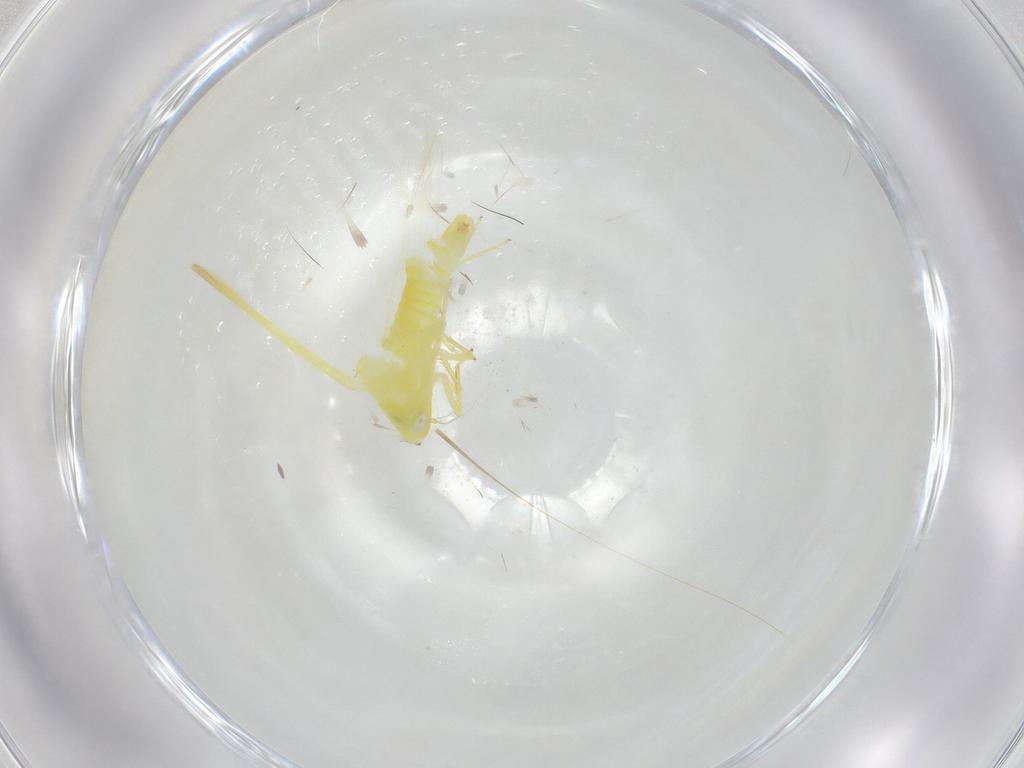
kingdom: Animalia
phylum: Arthropoda
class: Insecta
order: Hemiptera
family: Cicadellidae
